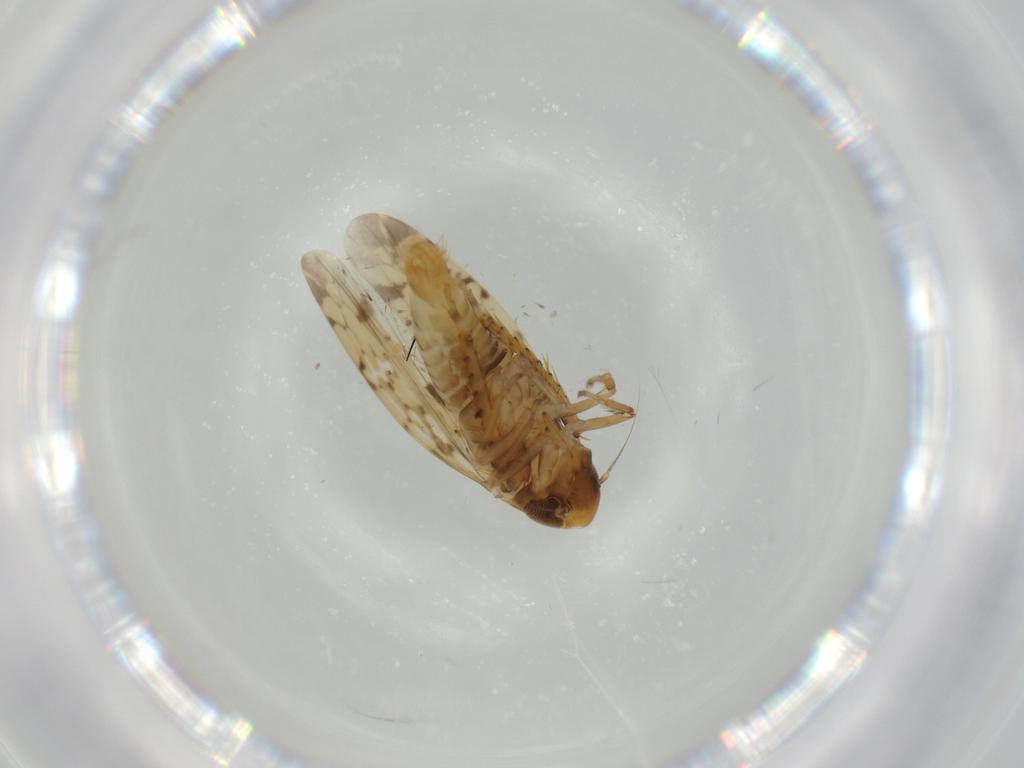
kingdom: Animalia
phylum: Arthropoda
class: Insecta
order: Hemiptera
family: Cicadellidae
